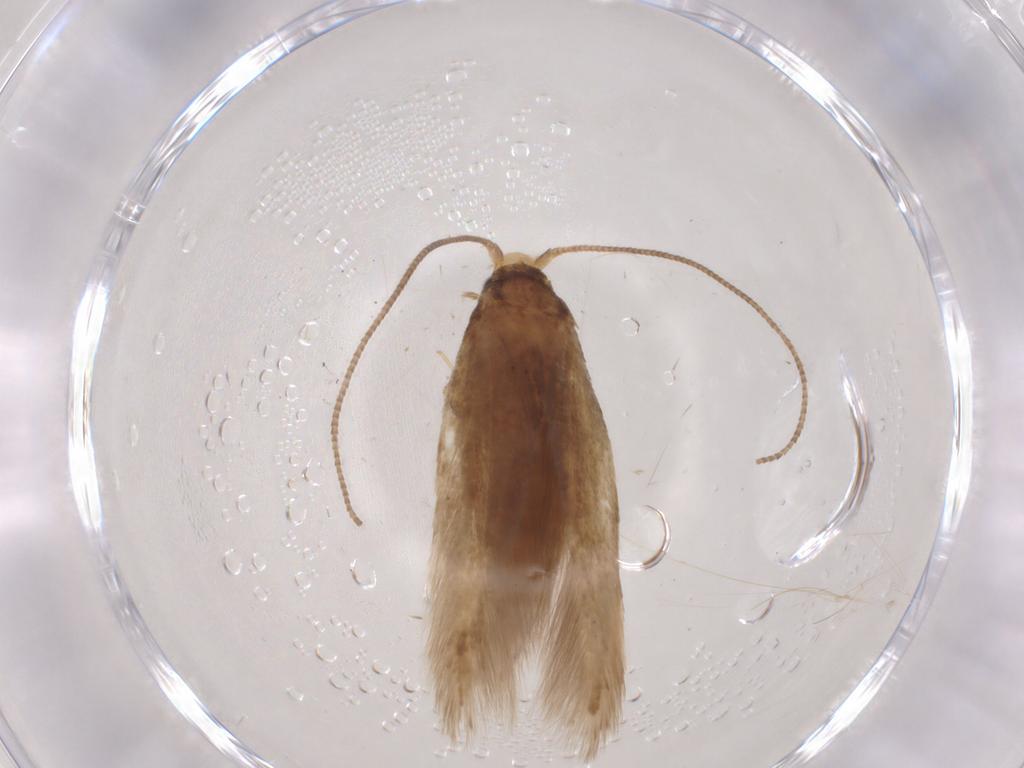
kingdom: Animalia
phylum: Arthropoda
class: Insecta
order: Lepidoptera
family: Tineidae
